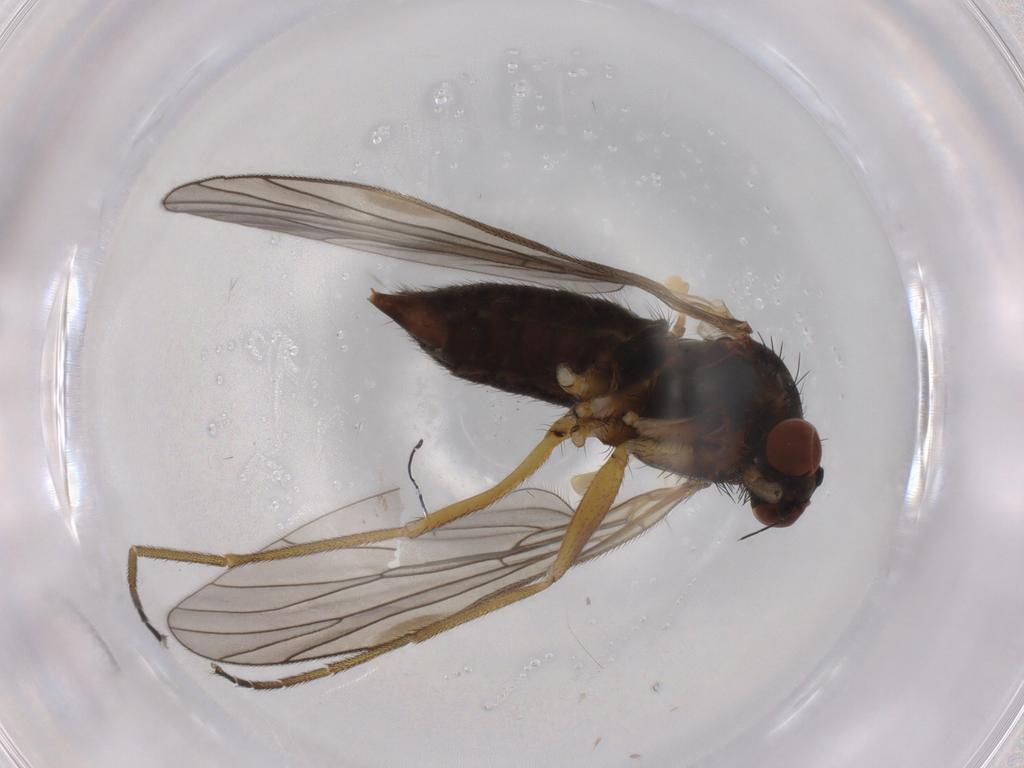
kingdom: Animalia
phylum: Arthropoda
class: Insecta
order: Diptera
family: Brachystomatidae
